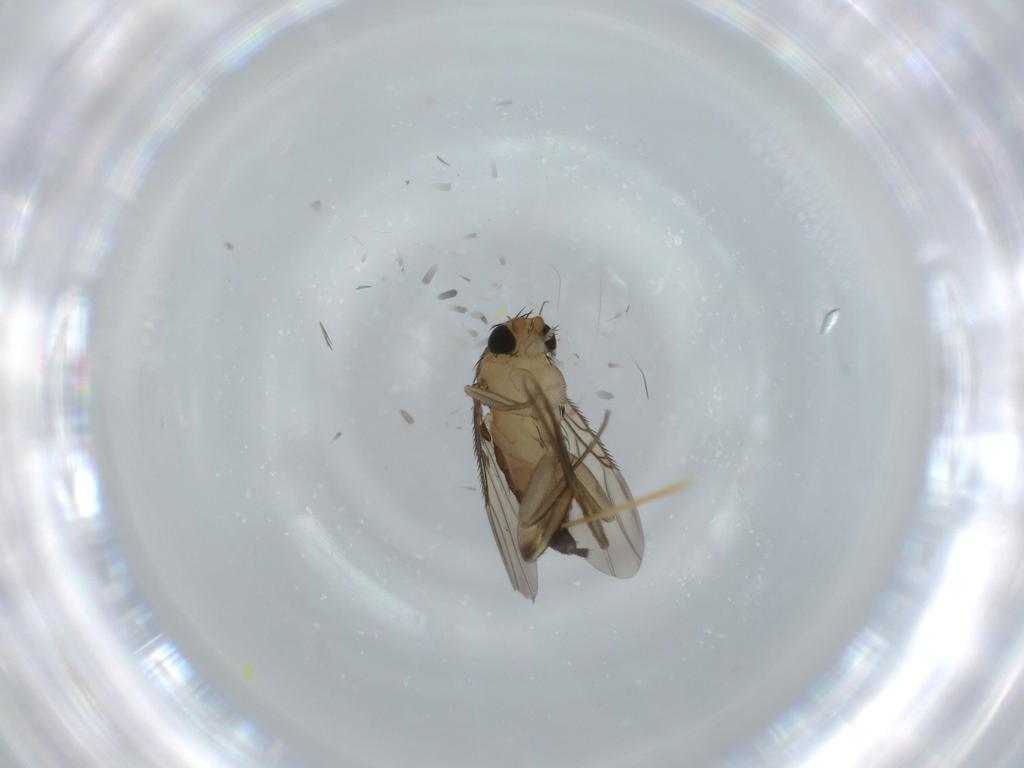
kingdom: Animalia
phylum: Arthropoda
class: Insecta
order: Diptera
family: Phoridae
